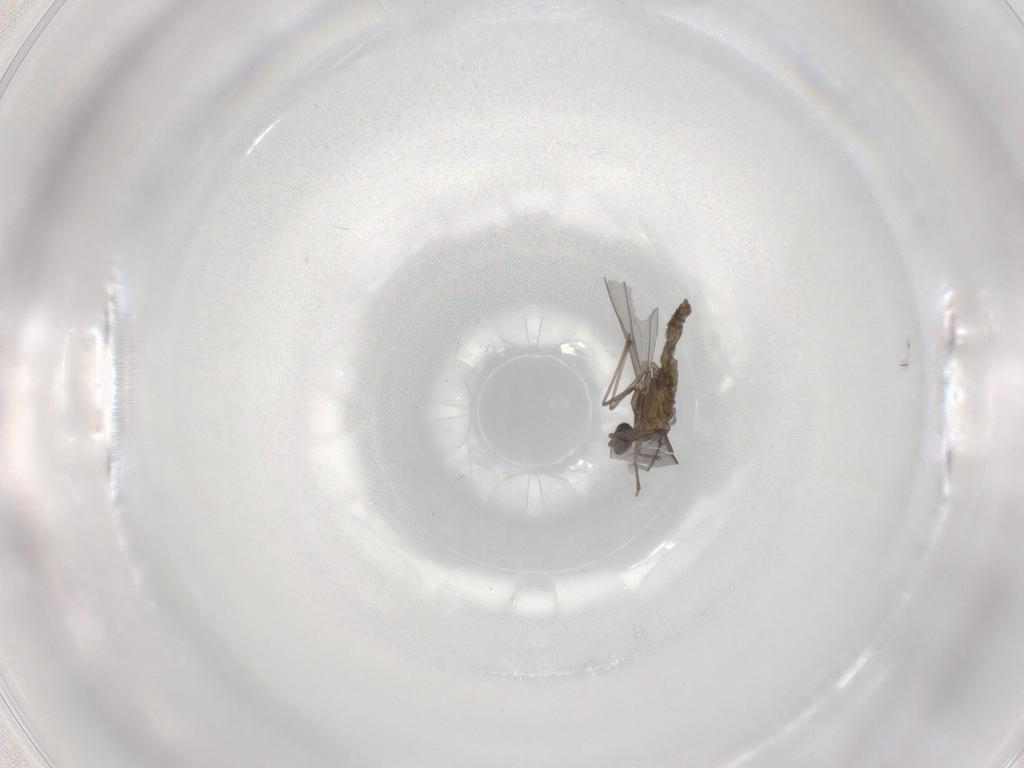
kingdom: Animalia
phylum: Arthropoda
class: Insecta
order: Diptera
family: Cecidomyiidae
